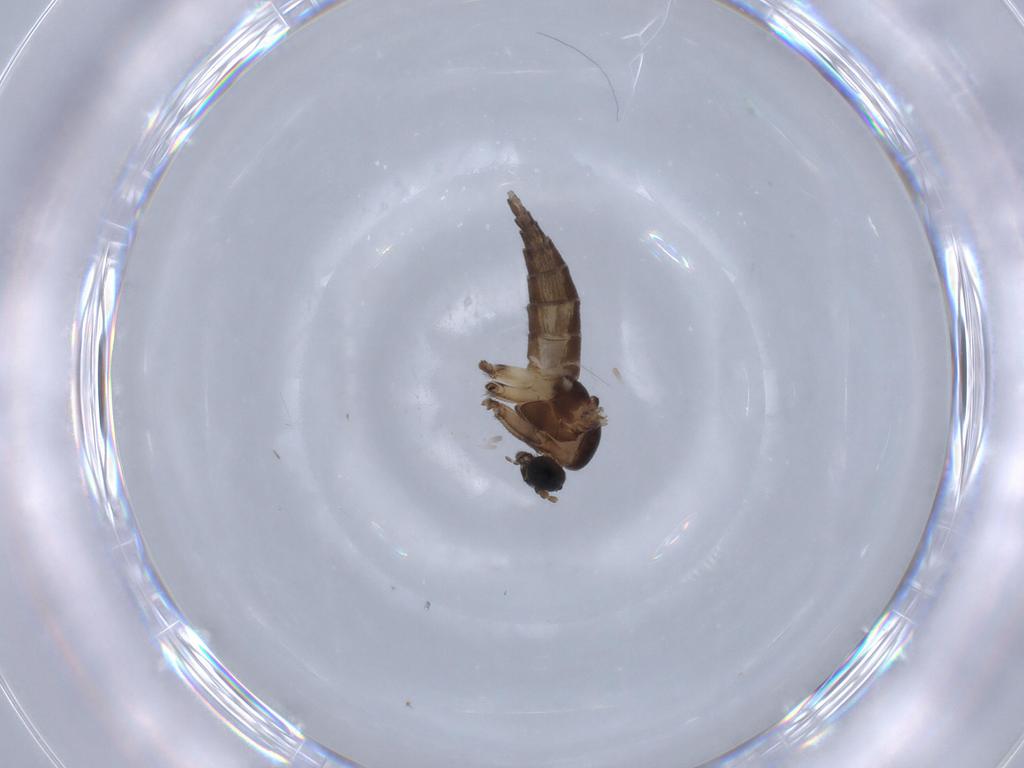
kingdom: Animalia
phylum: Arthropoda
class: Insecta
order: Diptera
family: Sciaridae
